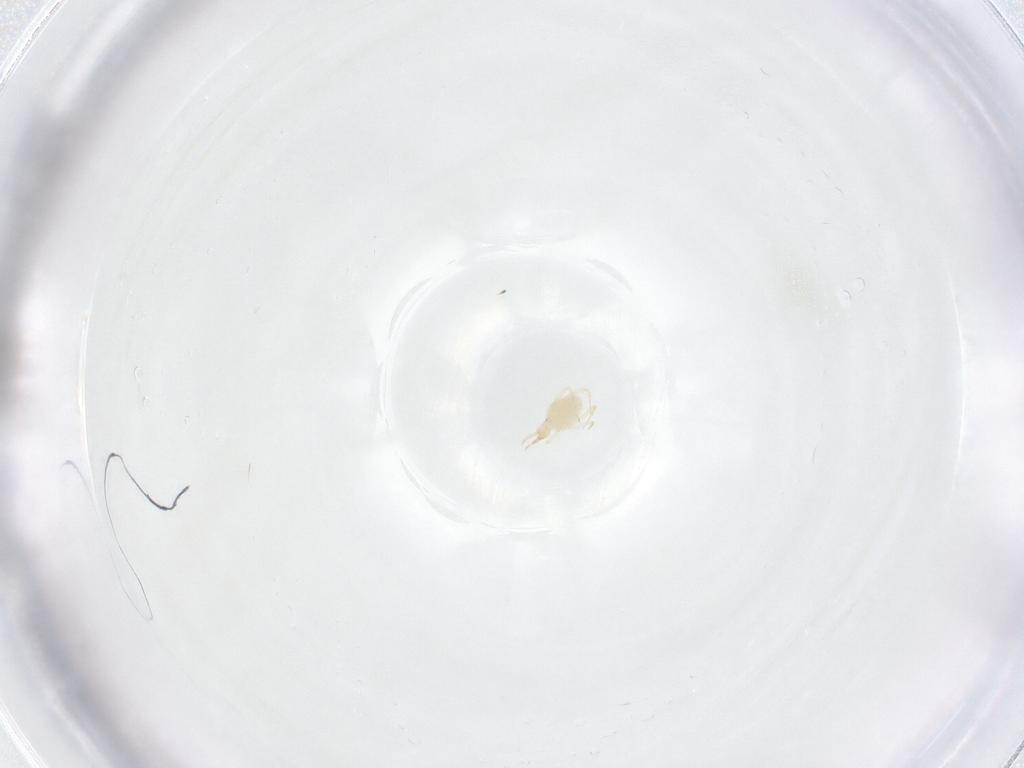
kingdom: Animalia
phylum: Arthropoda
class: Arachnida
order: Trombidiformes
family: Cunaxidae
